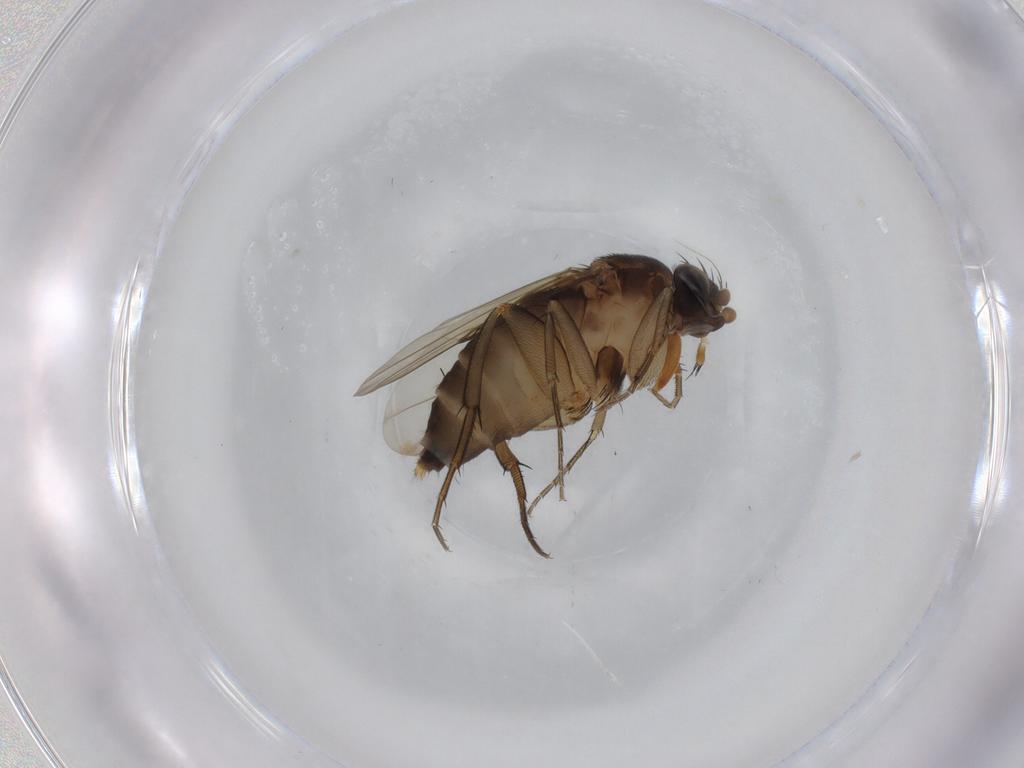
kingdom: Animalia
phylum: Arthropoda
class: Insecta
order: Diptera
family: Phoridae
